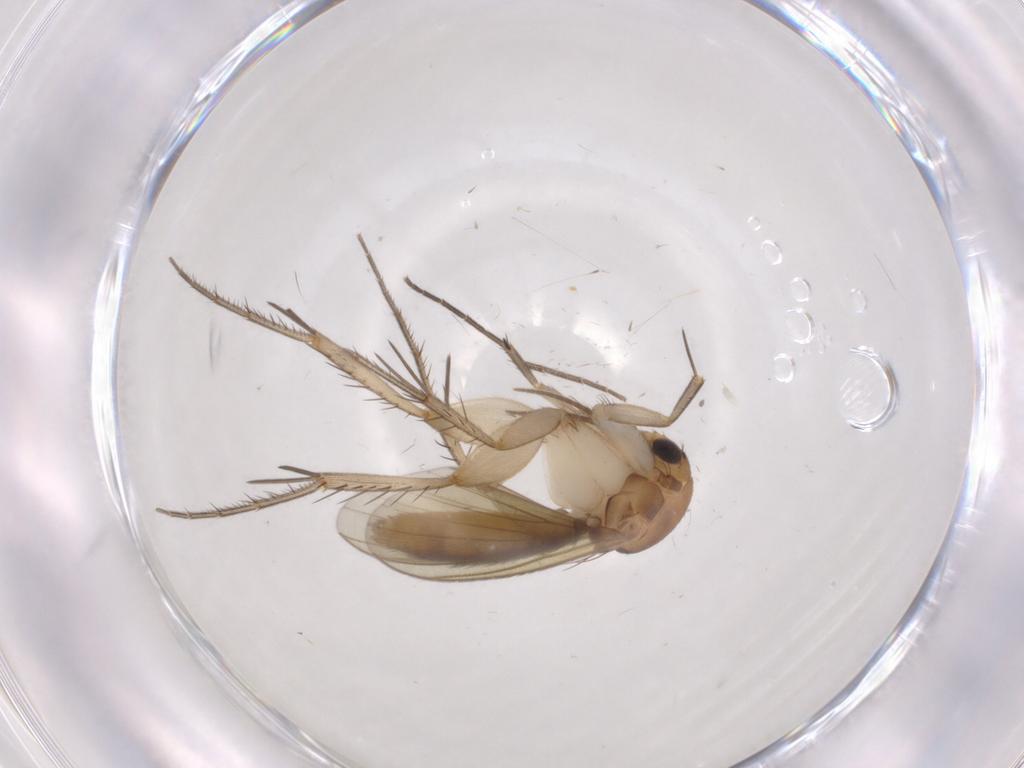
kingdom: Animalia
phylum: Arthropoda
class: Insecta
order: Diptera
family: Mycetophilidae
